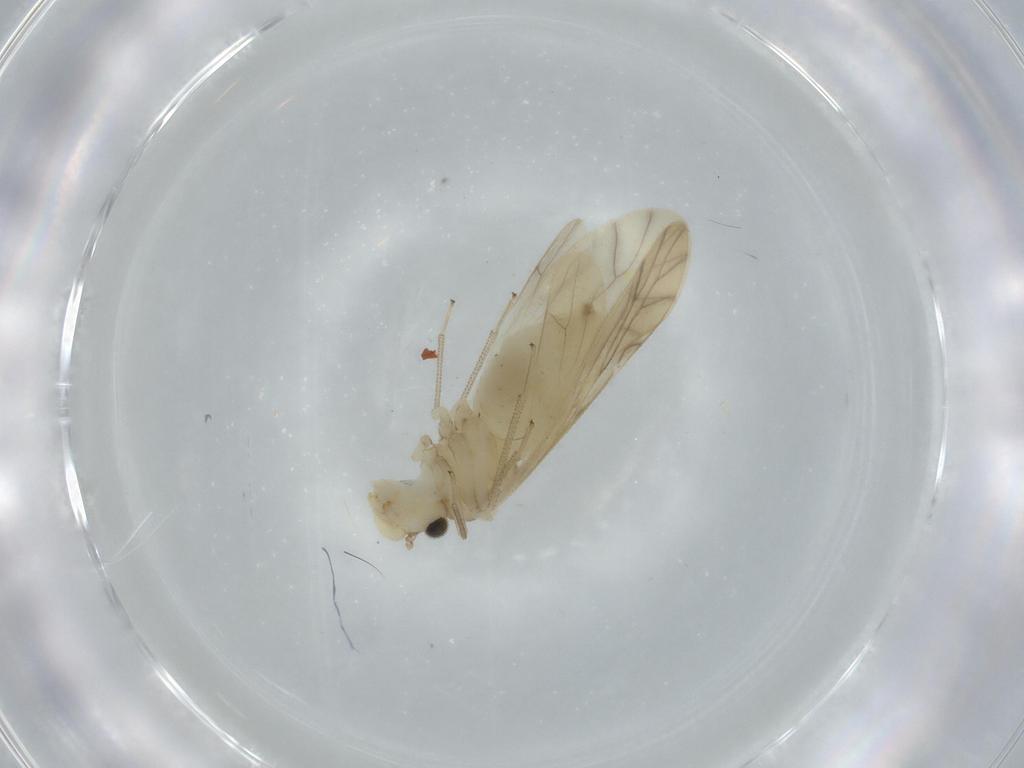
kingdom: Animalia
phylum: Arthropoda
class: Insecta
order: Psocodea
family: Caeciliusidae
